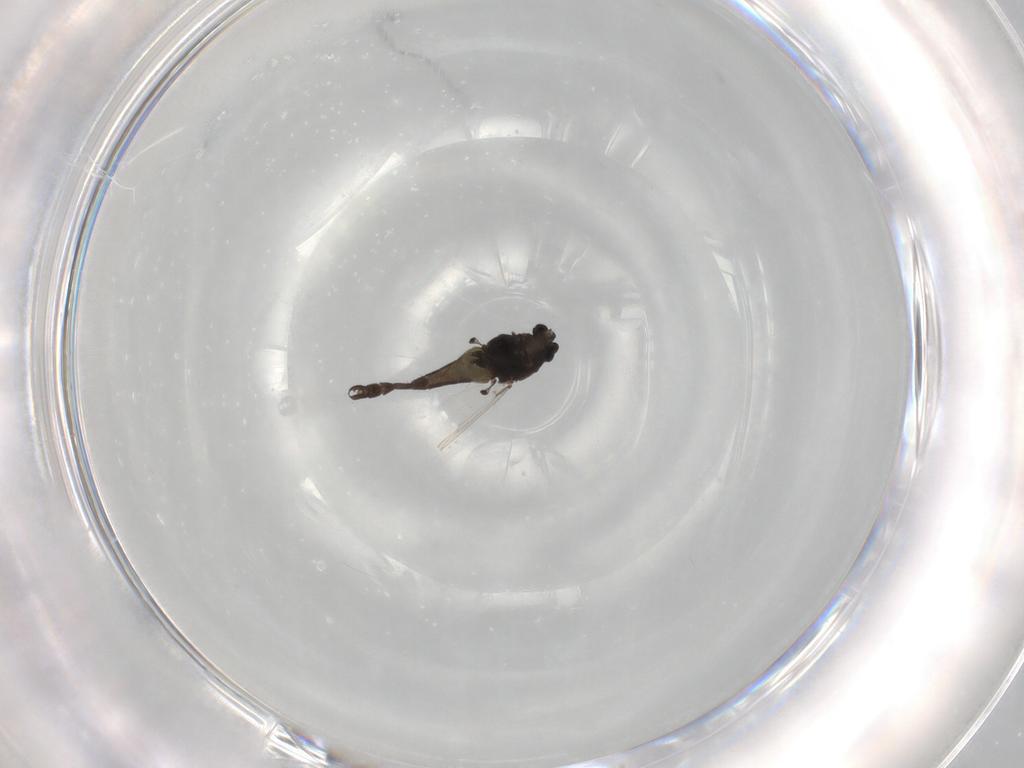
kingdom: Animalia
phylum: Arthropoda
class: Insecta
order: Diptera
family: Chironomidae
